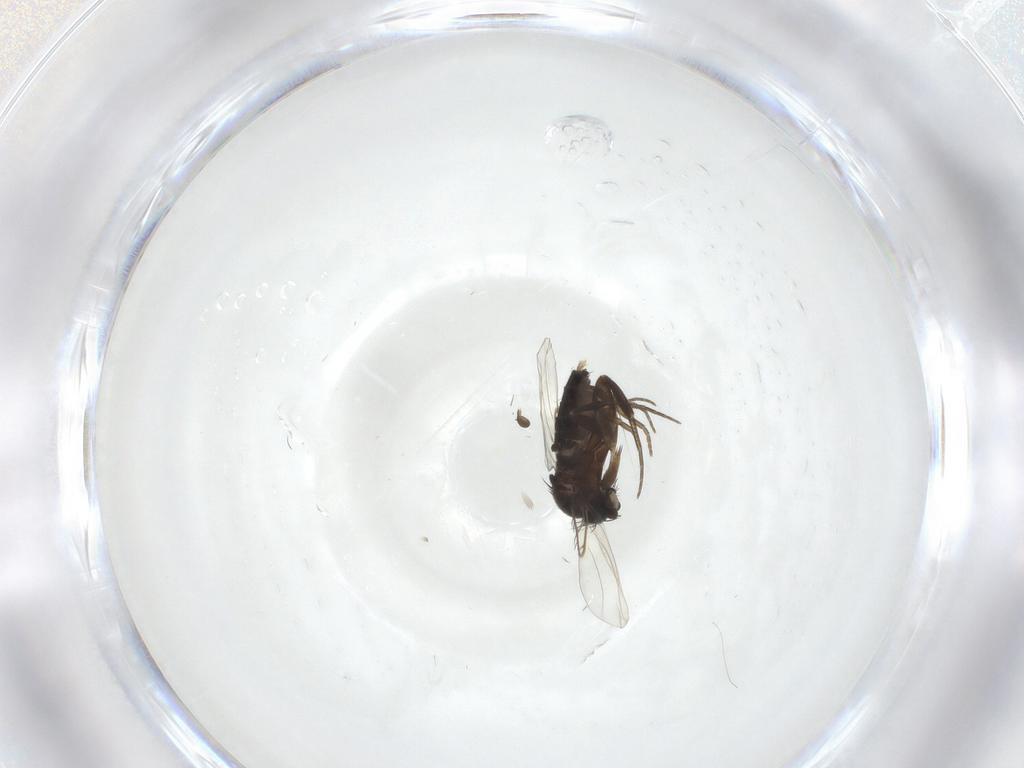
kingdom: Animalia
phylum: Arthropoda
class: Insecta
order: Diptera
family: Phoridae
